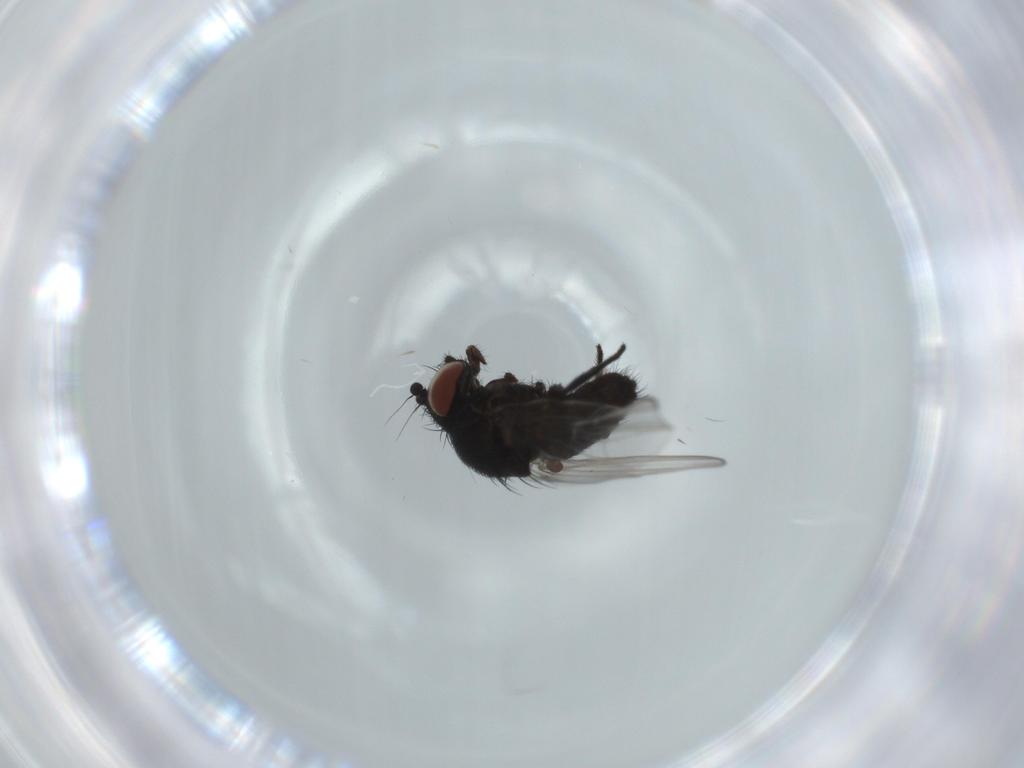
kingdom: Animalia
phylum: Arthropoda
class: Insecta
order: Diptera
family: Milichiidae
